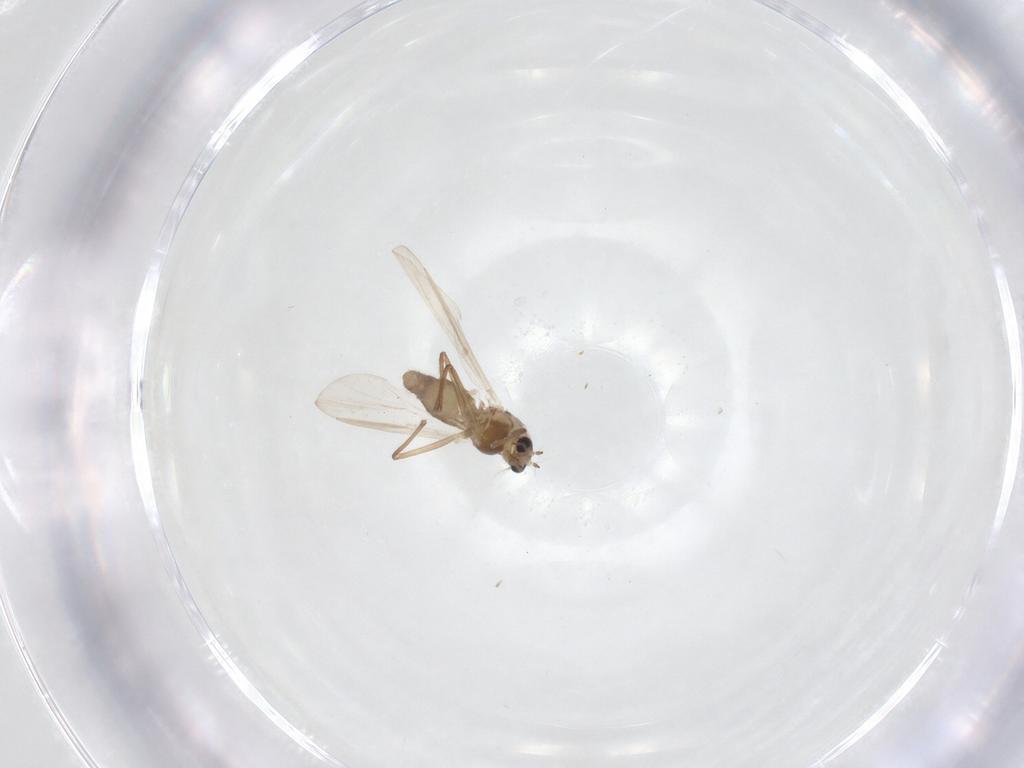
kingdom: Animalia
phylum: Arthropoda
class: Insecta
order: Diptera
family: Chironomidae
